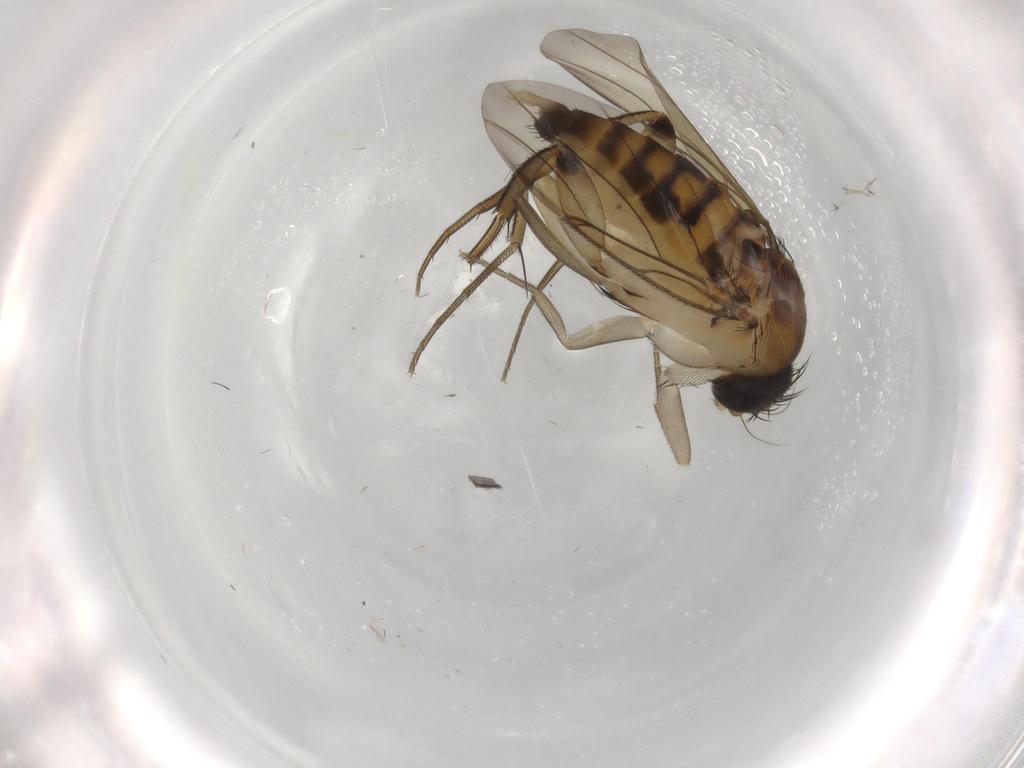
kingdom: Animalia
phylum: Arthropoda
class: Insecta
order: Diptera
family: Phoridae
